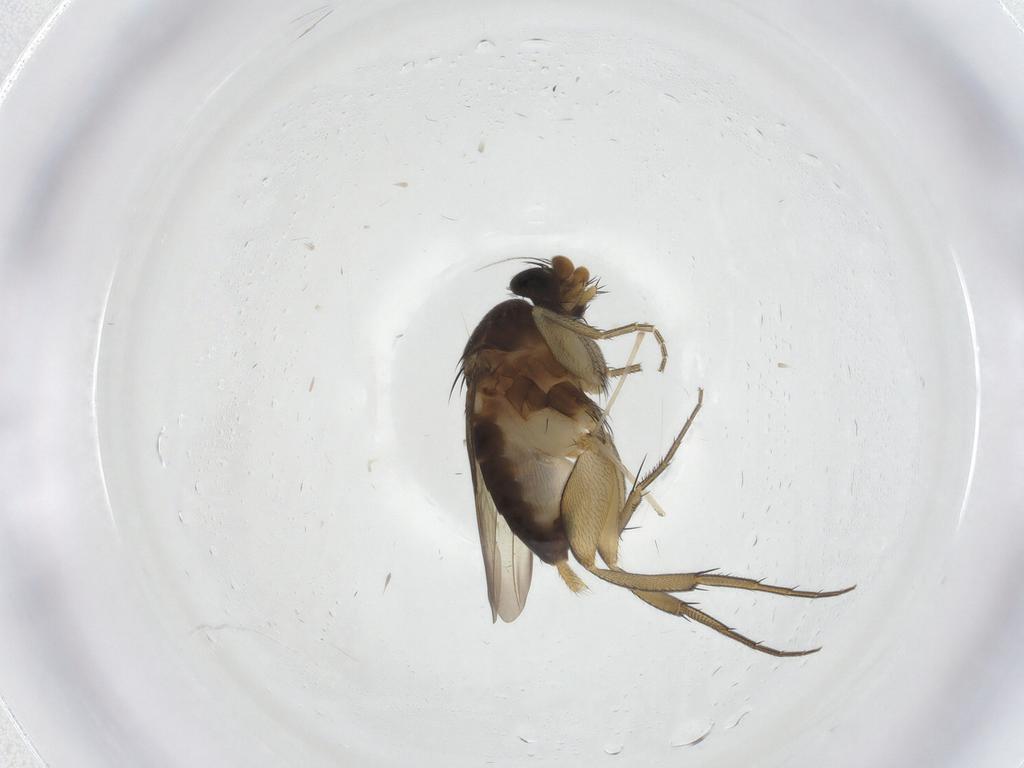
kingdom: Animalia
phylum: Arthropoda
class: Insecta
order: Diptera
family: Phoridae
